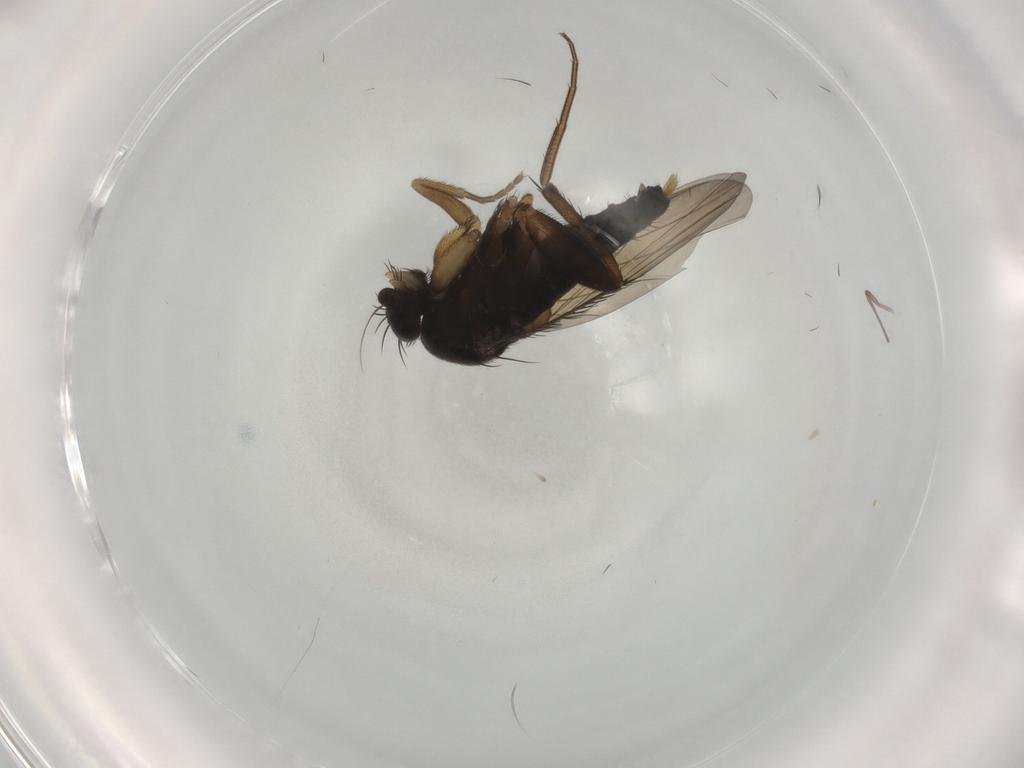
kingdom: Animalia
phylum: Arthropoda
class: Insecta
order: Diptera
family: Phoridae
